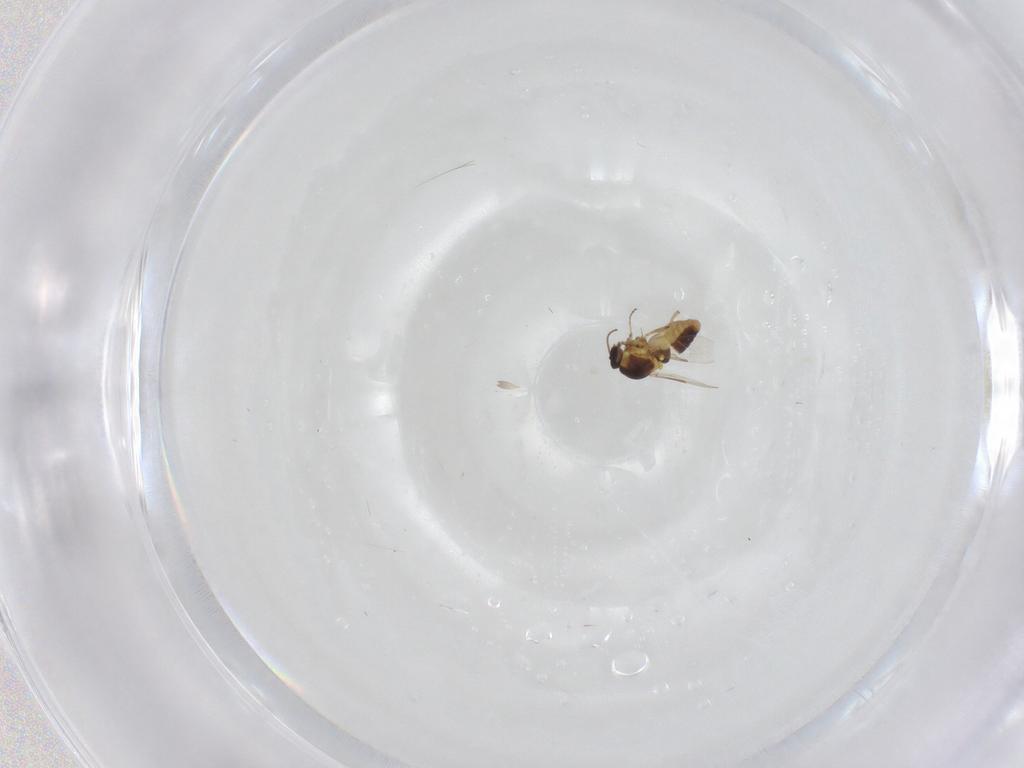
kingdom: Animalia
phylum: Arthropoda
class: Insecta
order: Diptera
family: Ceratopogonidae
